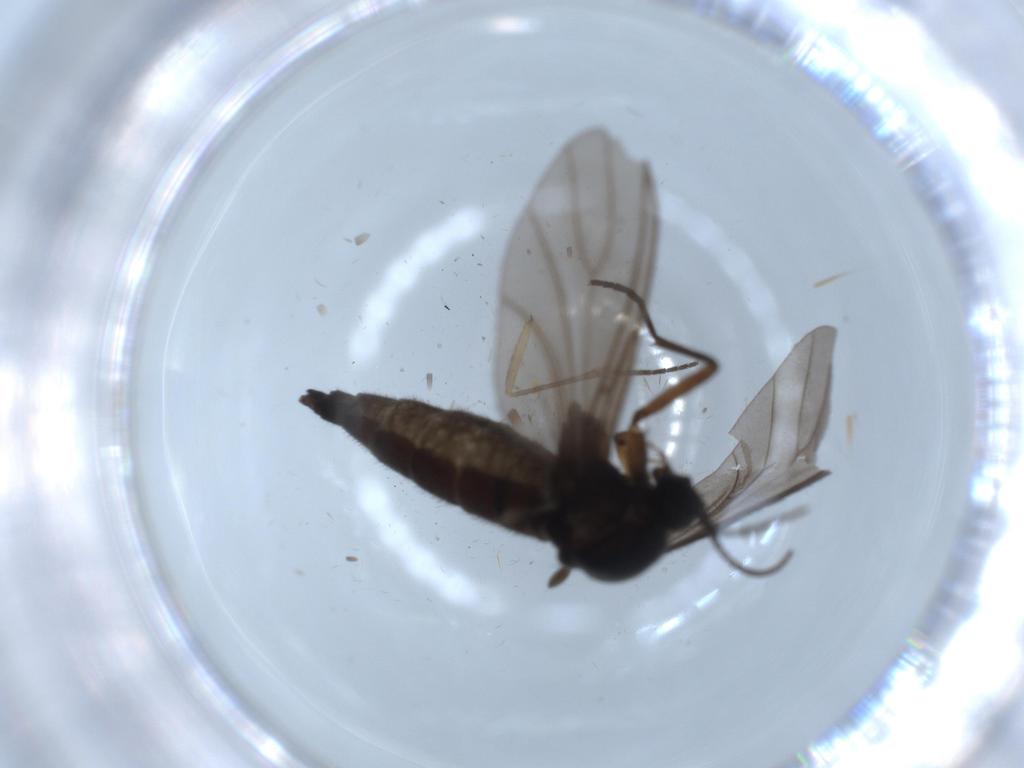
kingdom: Animalia
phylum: Arthropoda
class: Insecta
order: Diptera
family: Sciaridae
